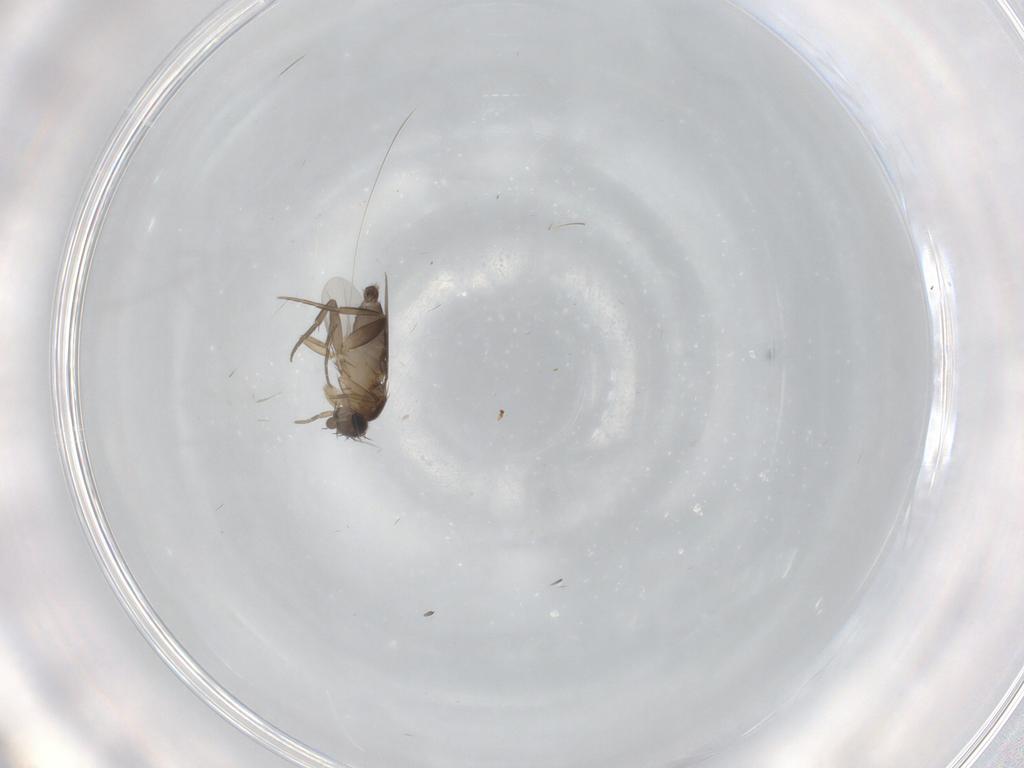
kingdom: Animalia
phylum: Arthropoda
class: Insecta
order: Diptera
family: Phoridae
